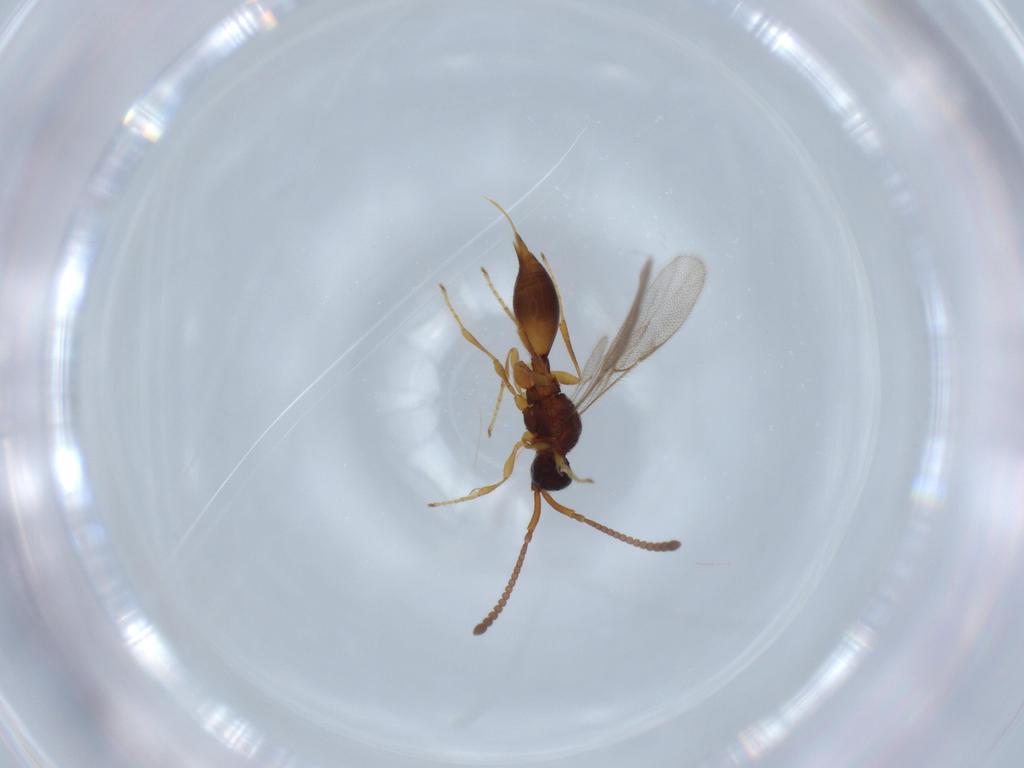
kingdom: Animalia
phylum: Arthropoda
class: Insecta
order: Hymenoptera
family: Diapriidae
